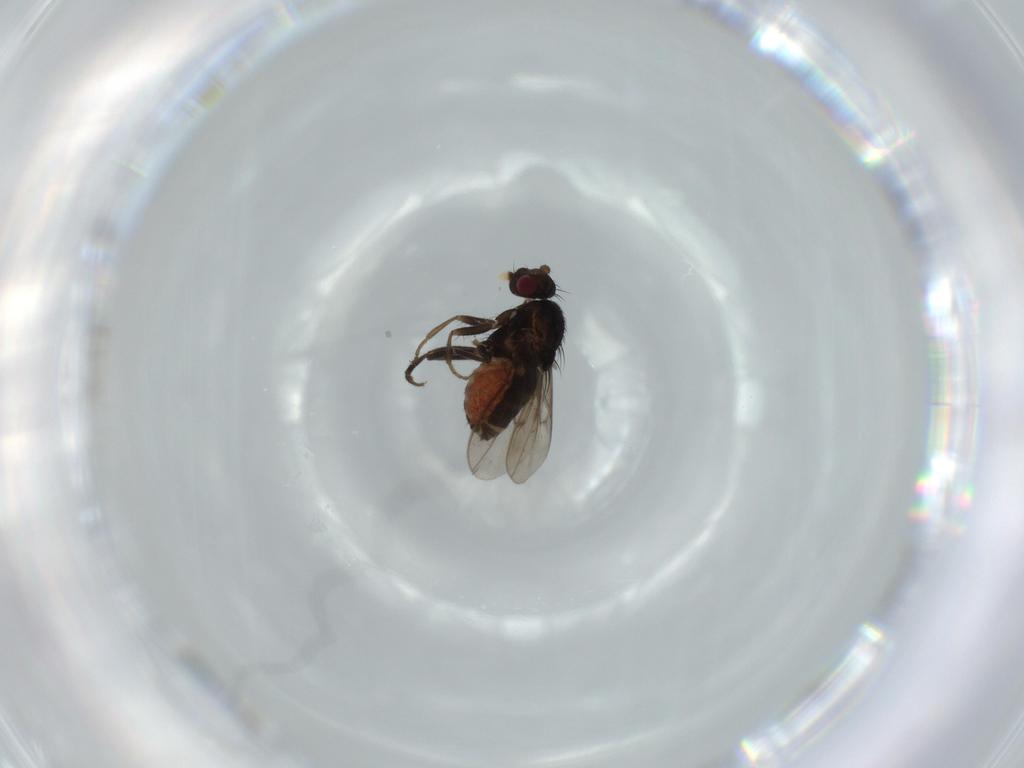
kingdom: Animalia
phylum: Arthropoda
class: Insecta
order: Diptera
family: Sphaeroceridae
